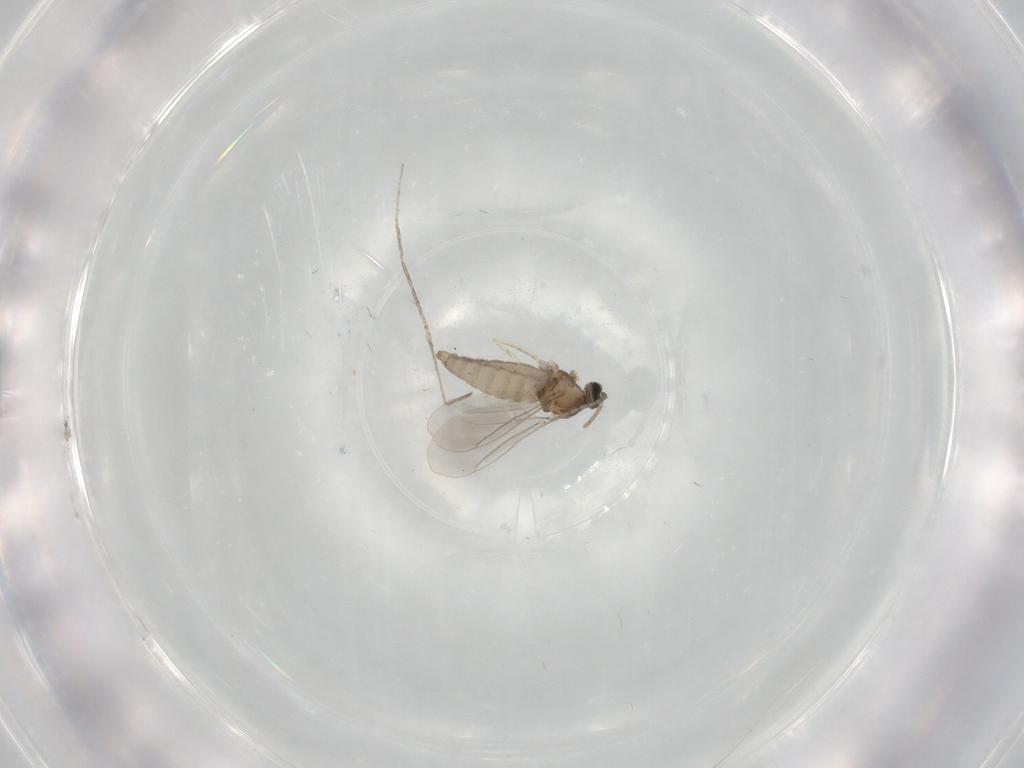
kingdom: Animalia
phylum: Arthropoda
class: Insecta
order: Diptera
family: Cecidomyiidae
